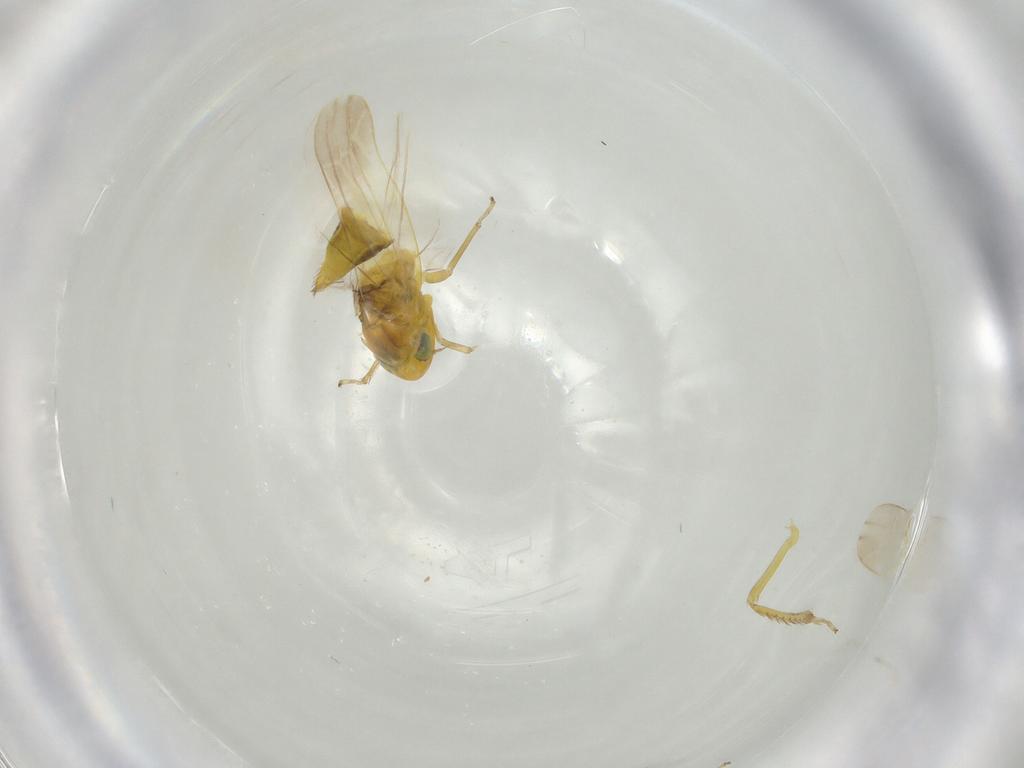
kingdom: Animalia
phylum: Arthropoda
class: Insecta
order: Hemiptera
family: Cicadellidae
